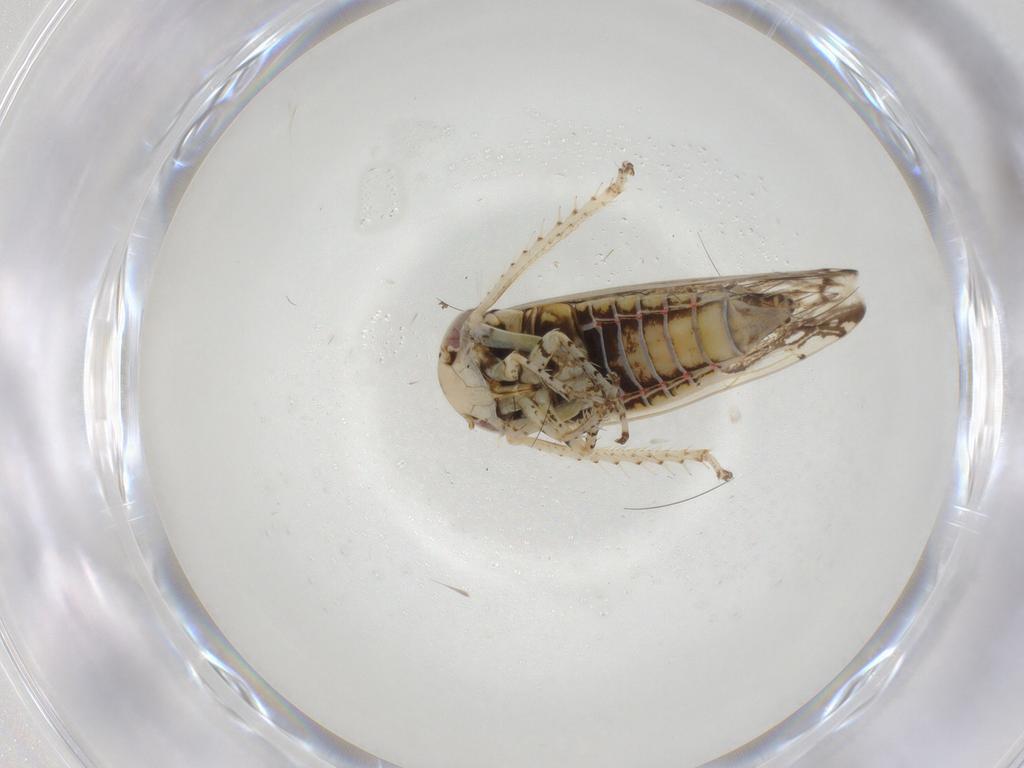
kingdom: Animalia
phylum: Arthropoda
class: Insecta
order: Hemiptera
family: Cicadellidae
